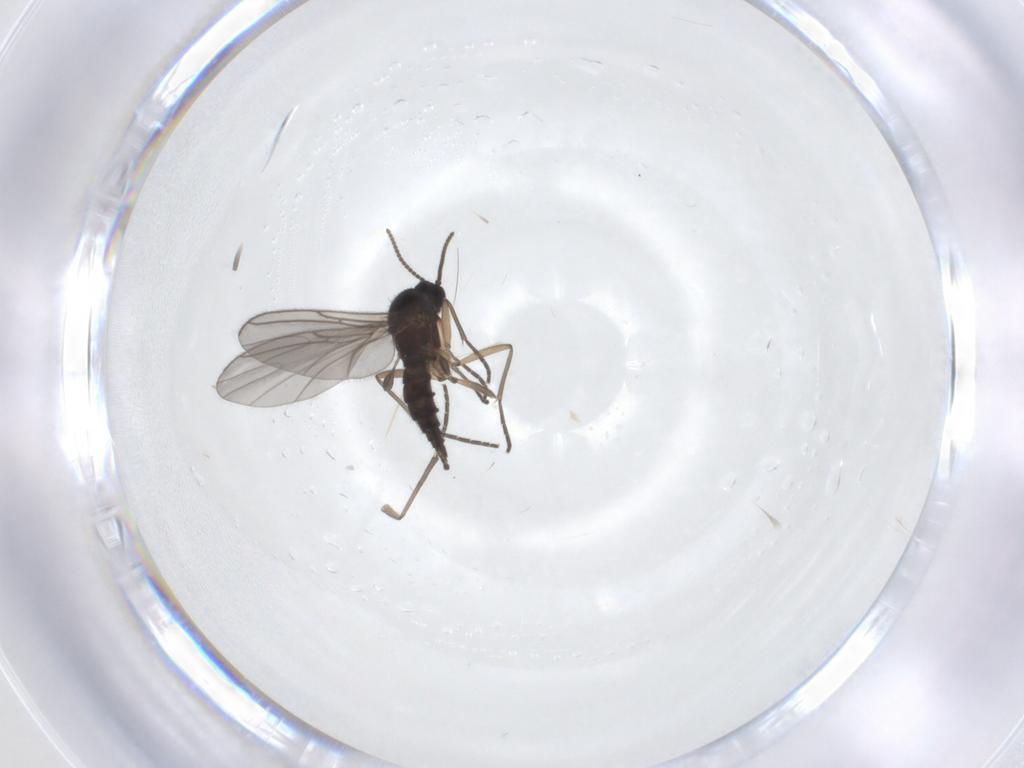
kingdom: Animalia
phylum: Arthropoda
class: Insecta
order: Diptera
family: Sciaridae
